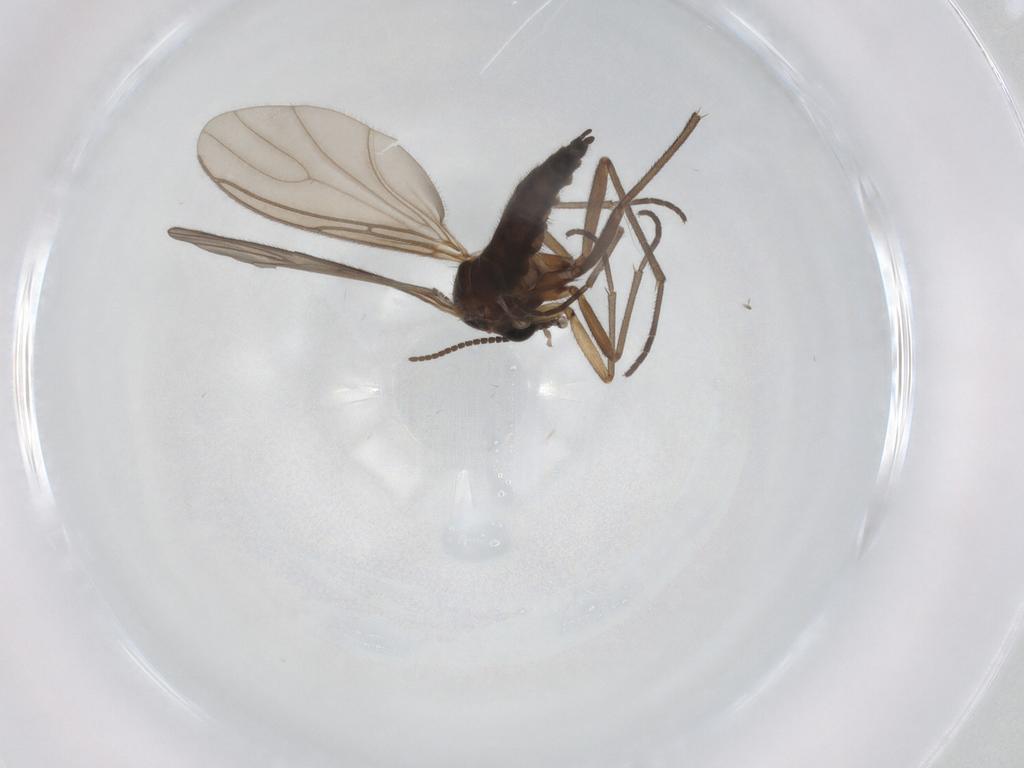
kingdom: Animalia
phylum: Arthropoda
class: Insecta
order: Diptera
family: Sciaridae
